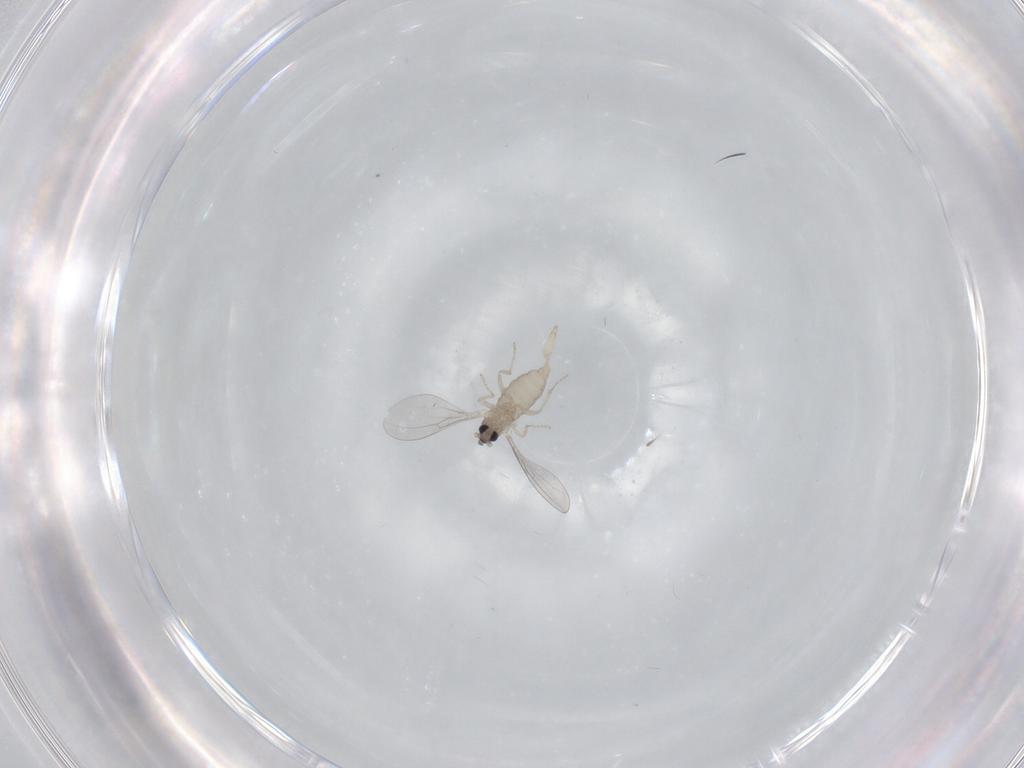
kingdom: Animalia
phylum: Arthropoda
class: Insecta
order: Diptera
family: Cecidomyiidae
